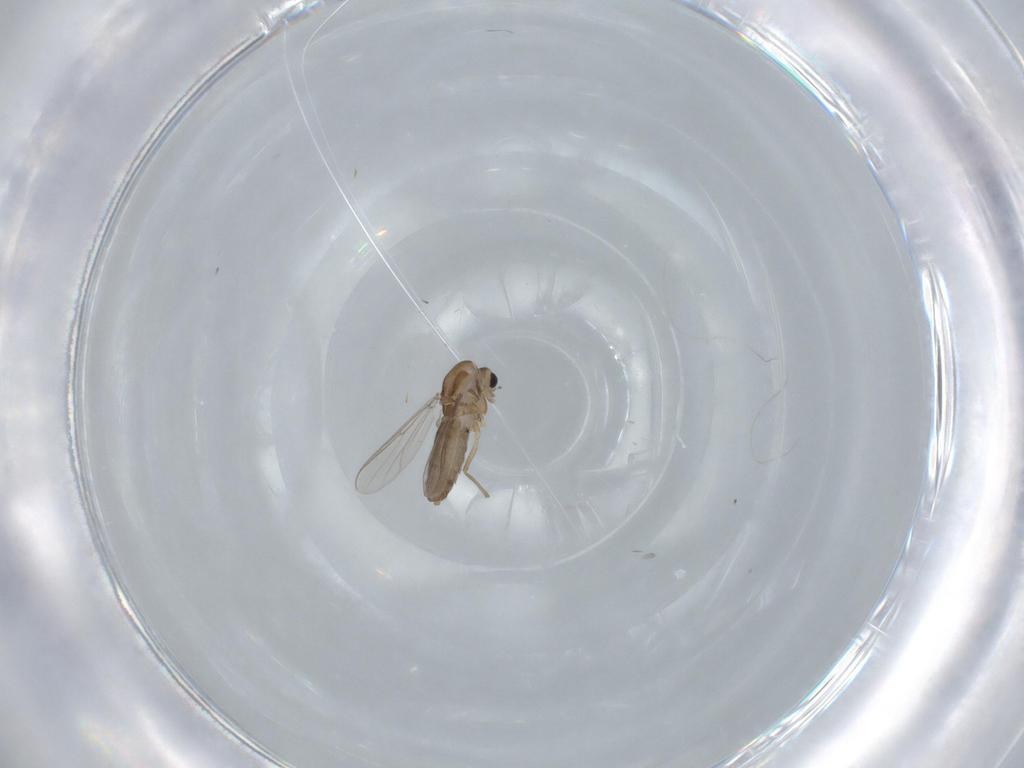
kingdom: Animalia
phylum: Arthropoda
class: Insecta
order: Diptera
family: Chironomidae
